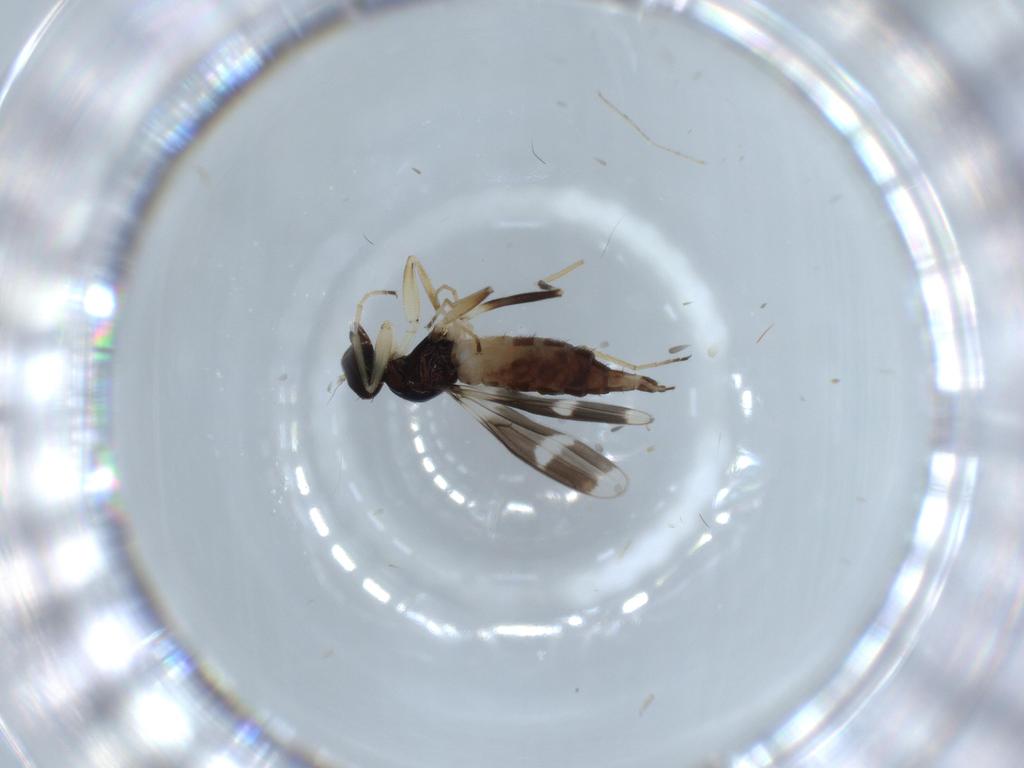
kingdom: Animalia
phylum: Arthropoda
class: Insecta
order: Diptera
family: Hybotidae
